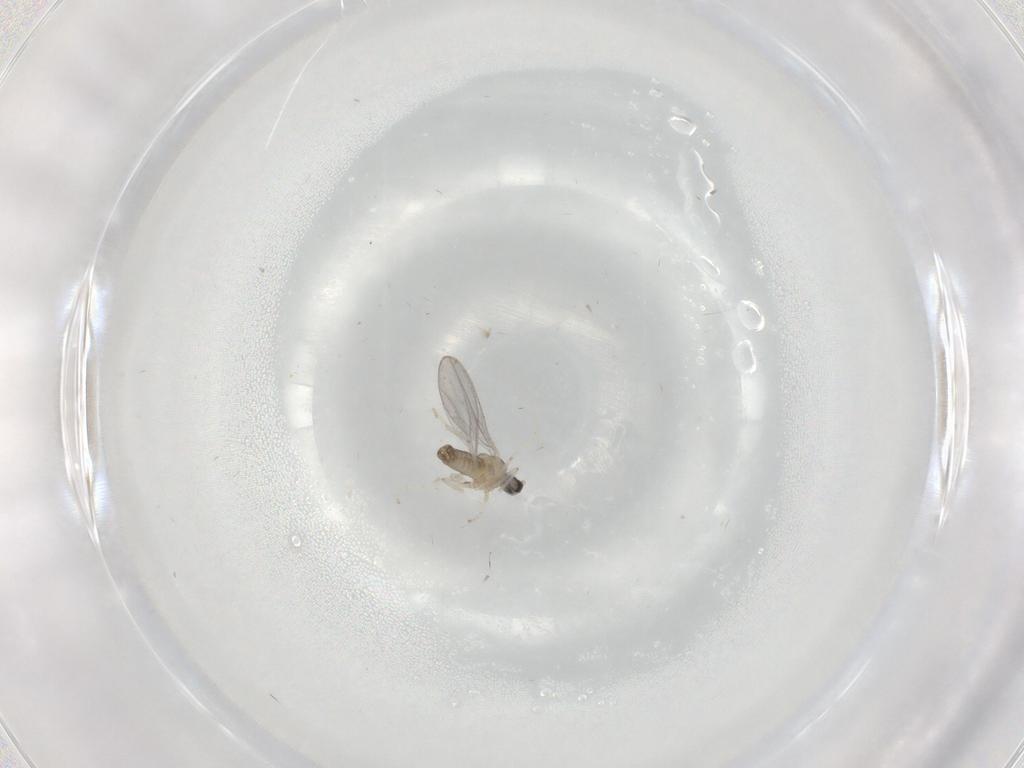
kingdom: Animalia
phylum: Arthropoda
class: Insecta
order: Diptera
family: Cecidomyiidae
